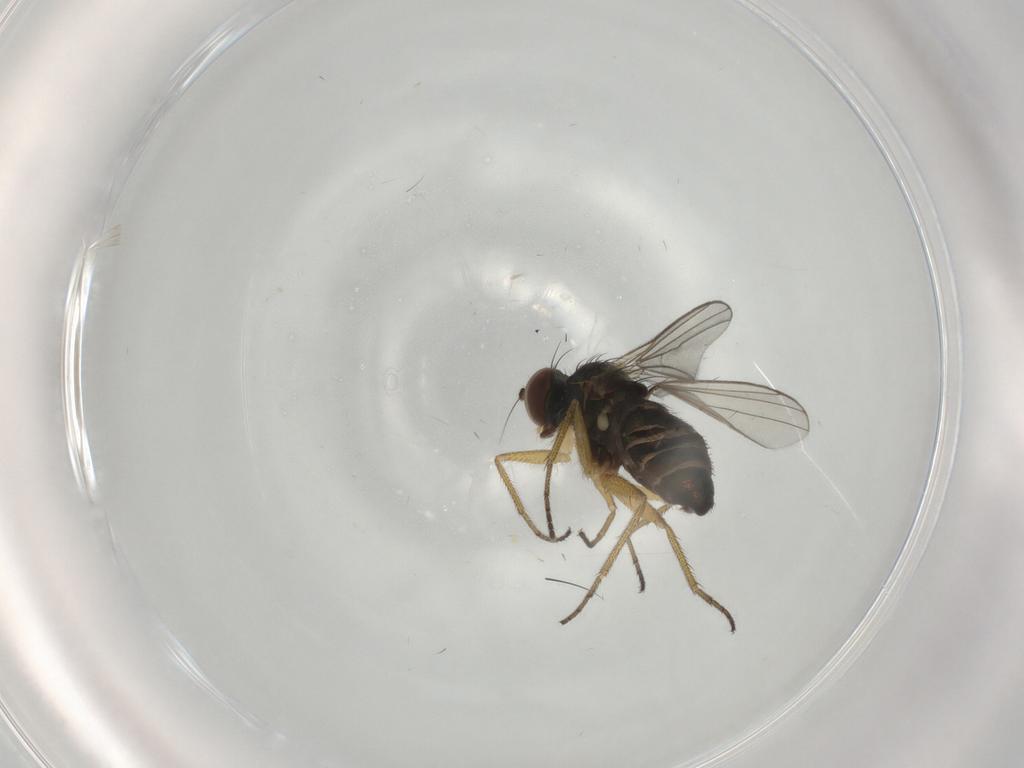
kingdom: Animalia
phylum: Arthropoda
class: Insecta
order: Diptera
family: Dolichopodidae
